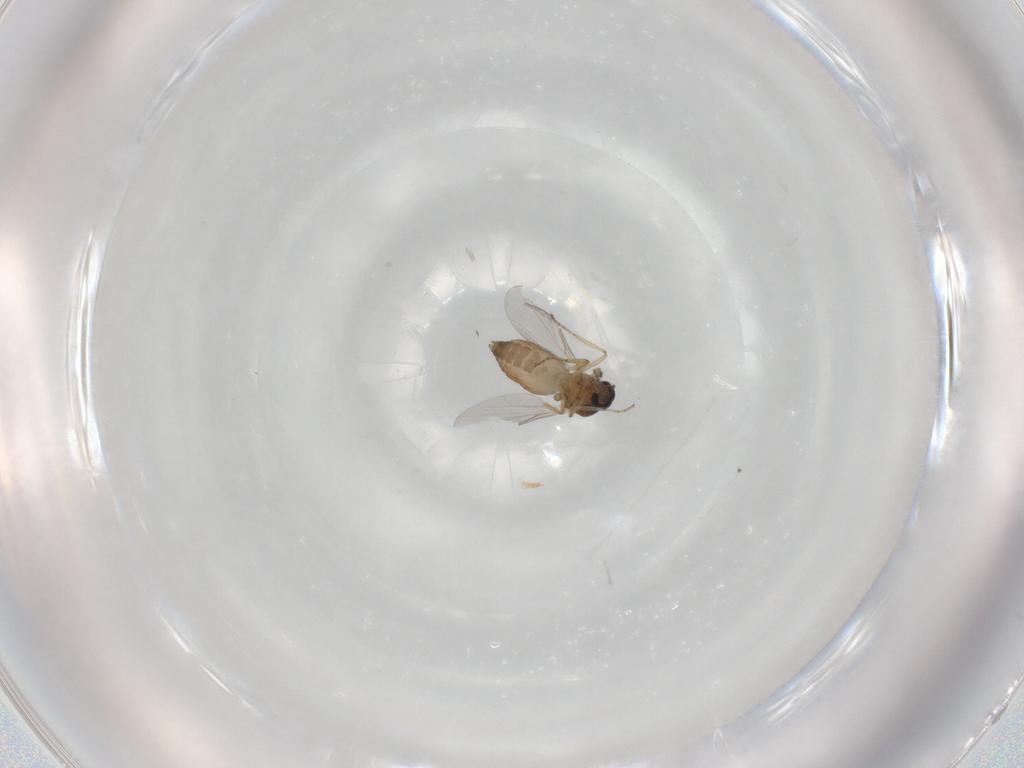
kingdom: Animalia
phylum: Arthropoda
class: Insecta
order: Diptera
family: Ceratopogonidae
